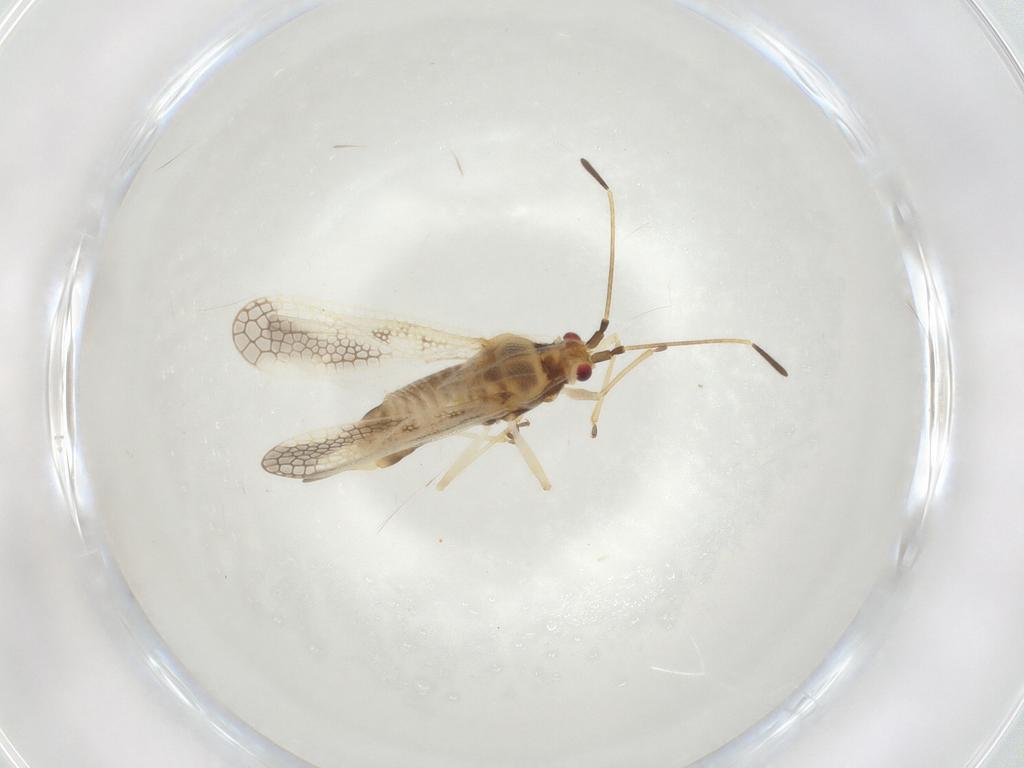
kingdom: Animalia
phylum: Arthropoda
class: Insecta
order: Hemiptera
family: Tingidae
